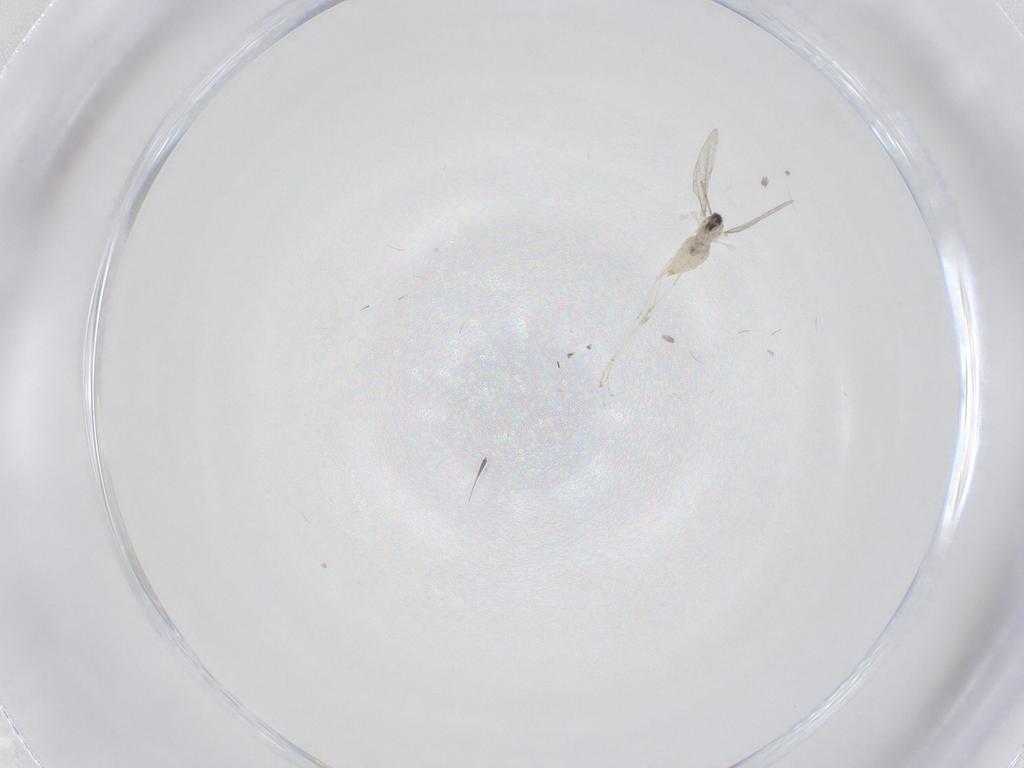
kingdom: Animalia
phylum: Arthropoda
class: Insecta
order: Diptera
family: Cecidomyiidae
